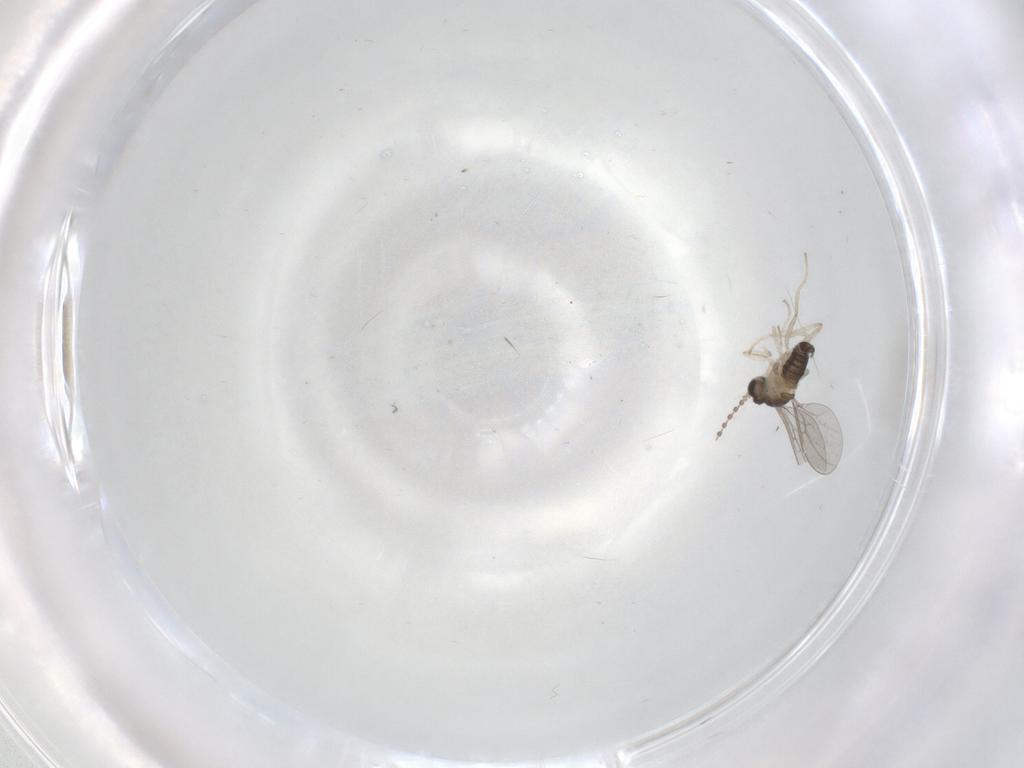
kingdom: Animalia
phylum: Arthropoda
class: Insecta
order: Diptera
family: Cecidomyiidae
